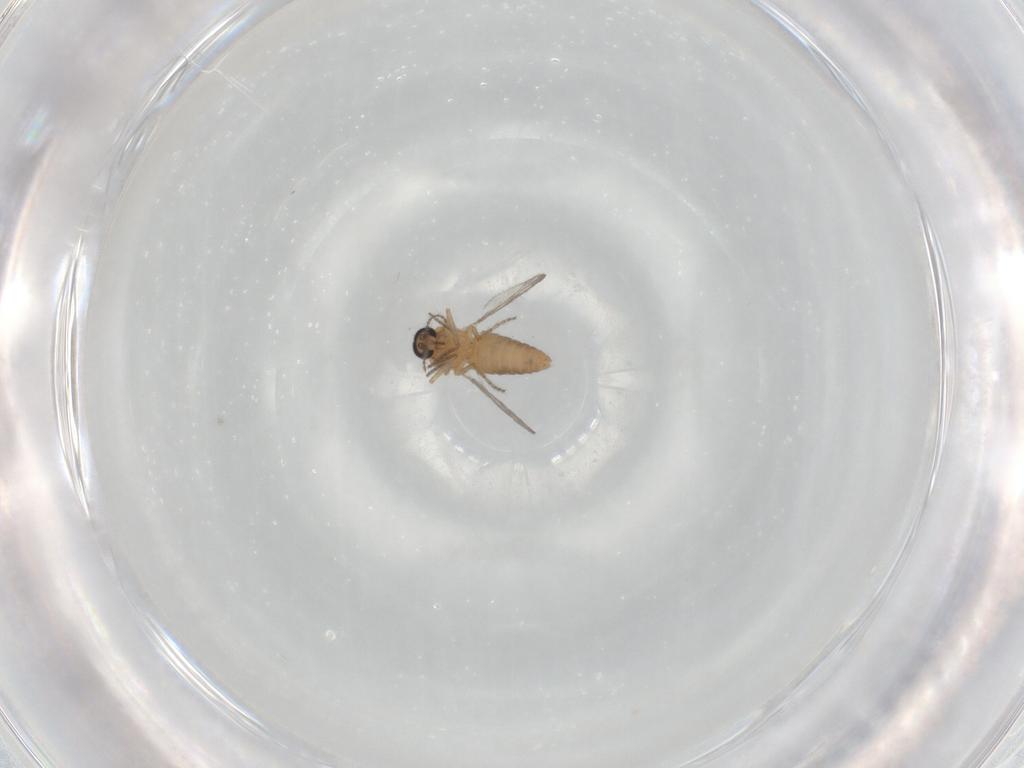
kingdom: Animalia
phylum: Arthropoda
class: Insecta
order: Diptera
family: Ceratopogonidae
